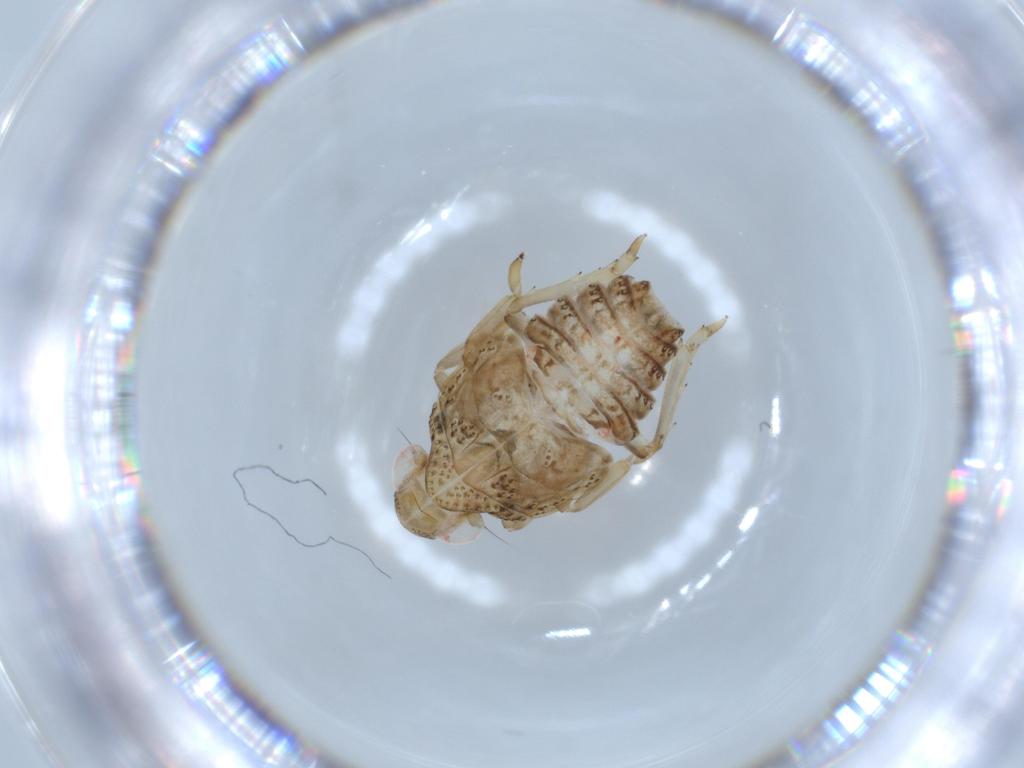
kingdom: Animalia
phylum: Arthropoda
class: Insecta
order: Hemiptera
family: Issidae
